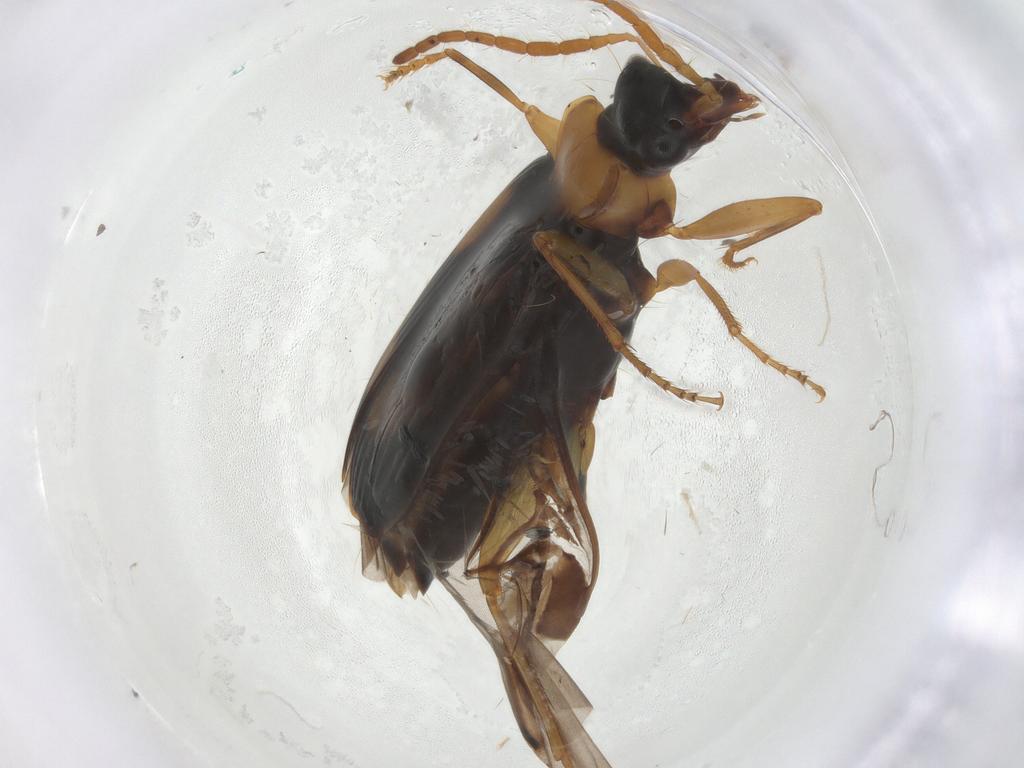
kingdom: Animalia
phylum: Arthropoda
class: Insecta
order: Coleoptera
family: Carabidae
